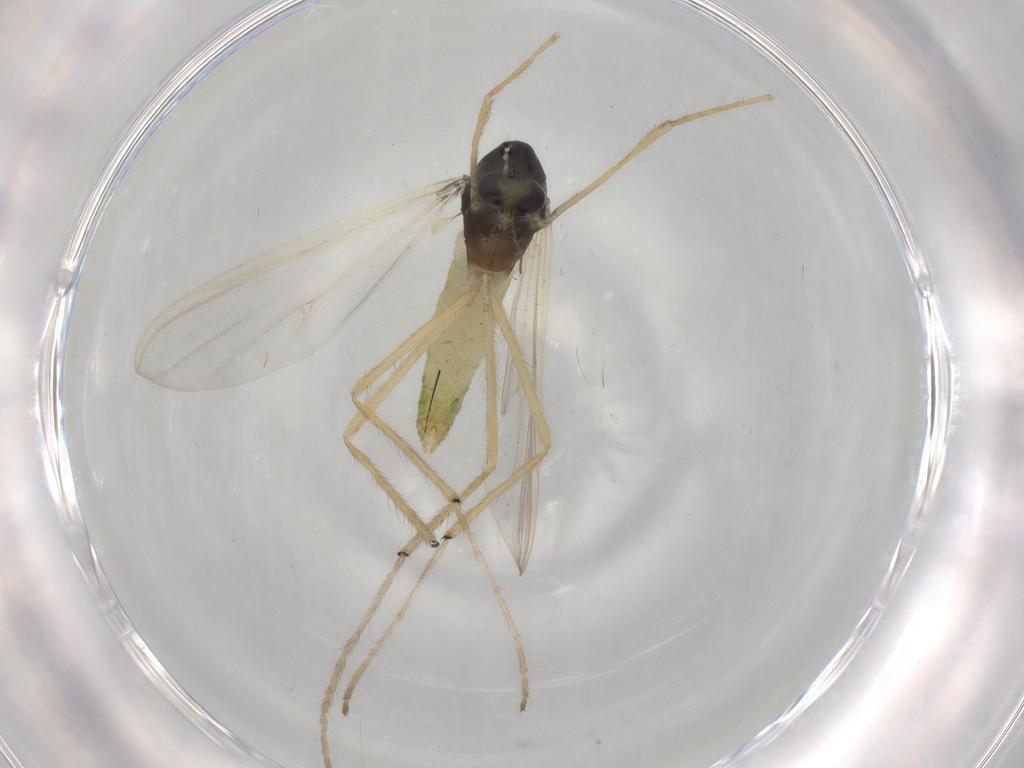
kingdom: Animalia
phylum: Arthropoda
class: Insecta
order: Diptera
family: Chironomidae
